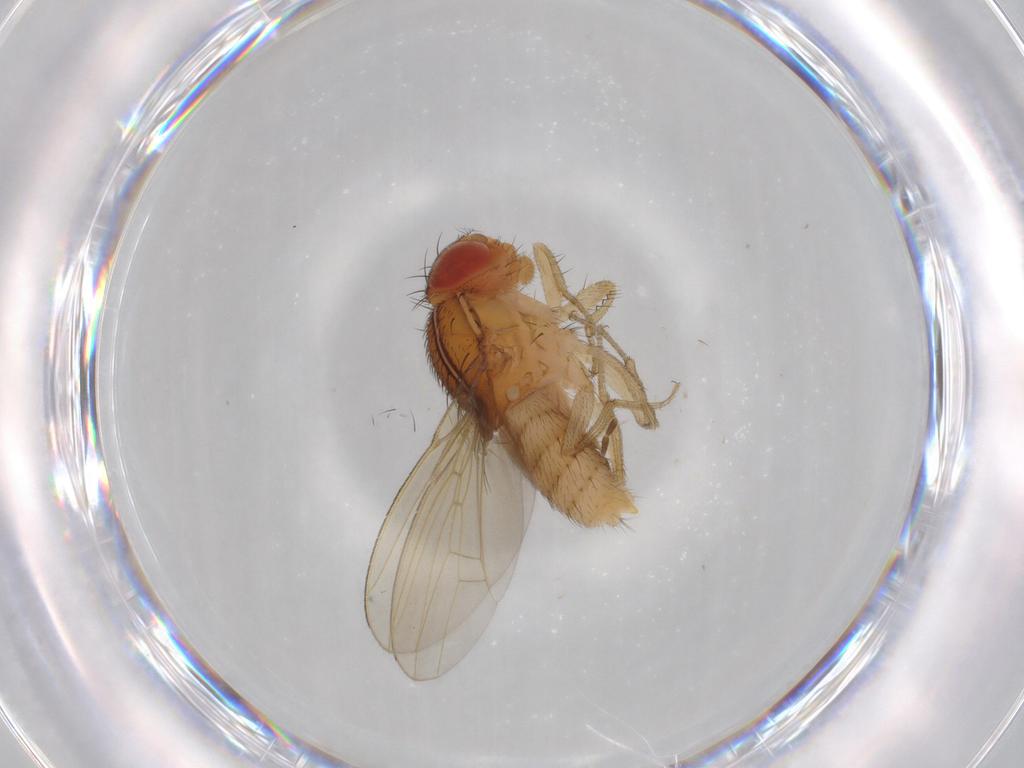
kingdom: Animalia
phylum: Arthropoda
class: Insecta
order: Diptera
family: Drosophilidae
